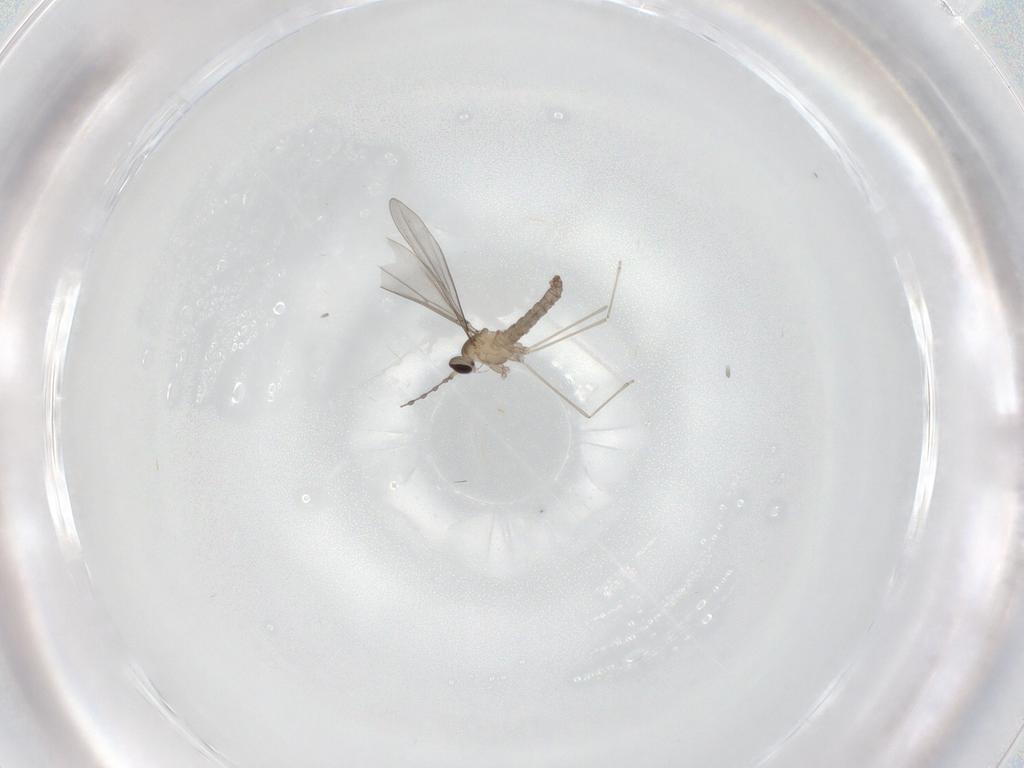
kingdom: Animalia
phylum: Arthropoda
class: Insecta
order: Diptera
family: Cecidomyiidae
